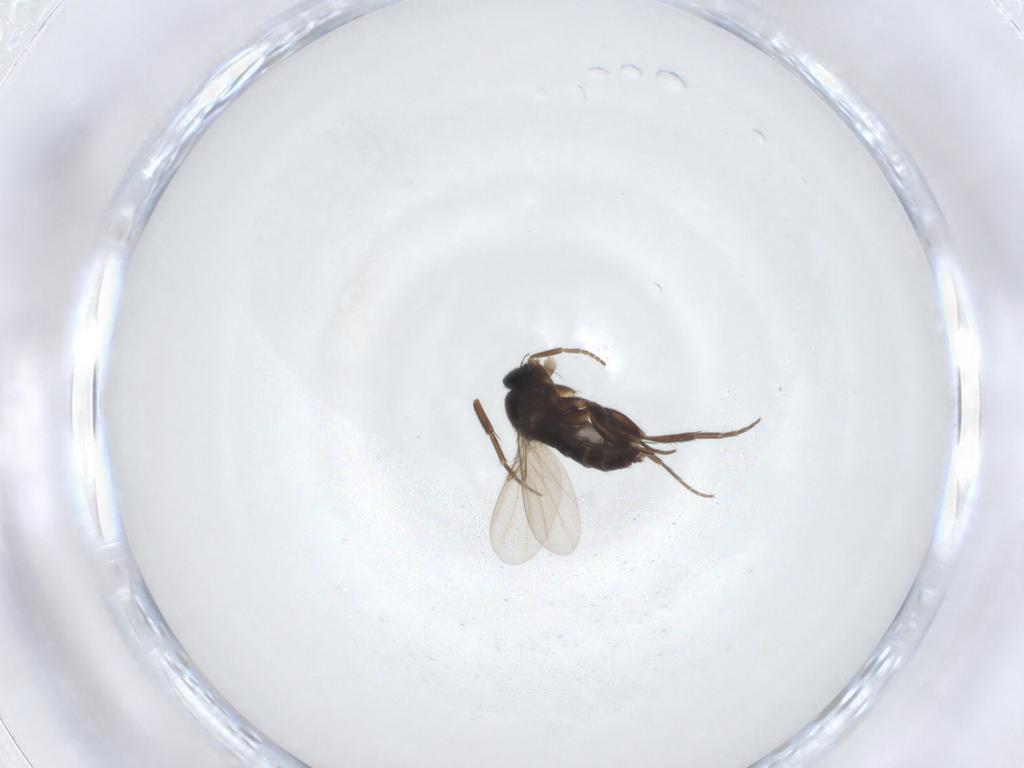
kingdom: Animalia
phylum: Arthropoda
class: Insecta
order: Diptera
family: Phoridae
